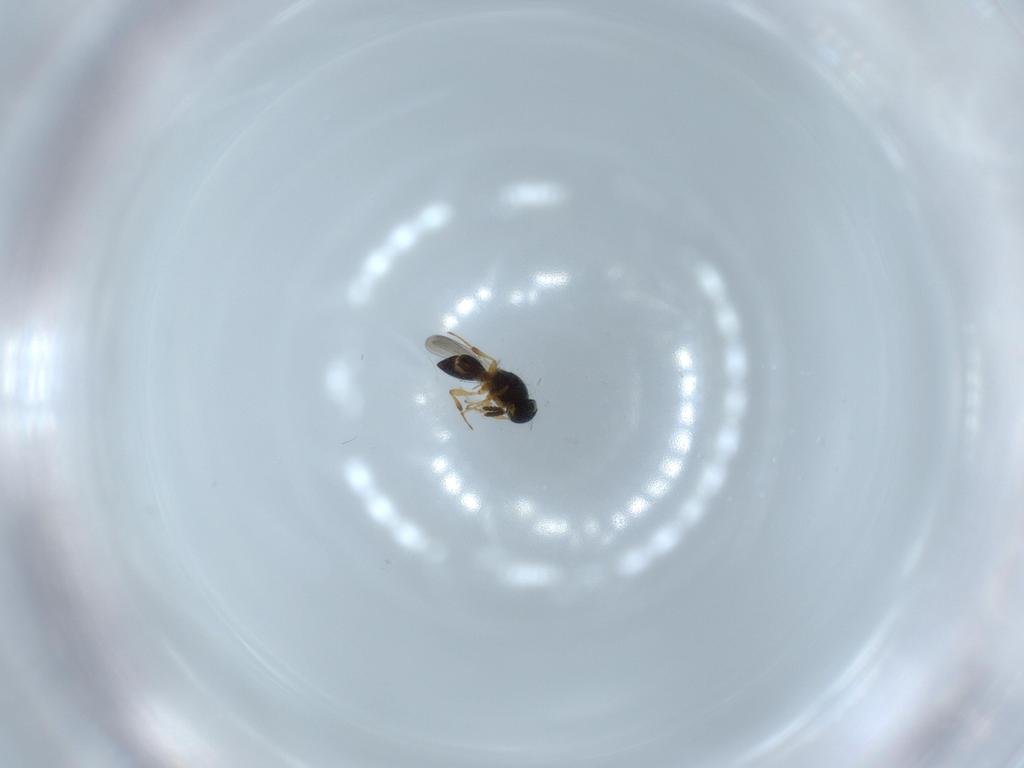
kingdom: Animalia
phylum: Arthropoda
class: Insecta
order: Hymenoptera
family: Platygastridae
